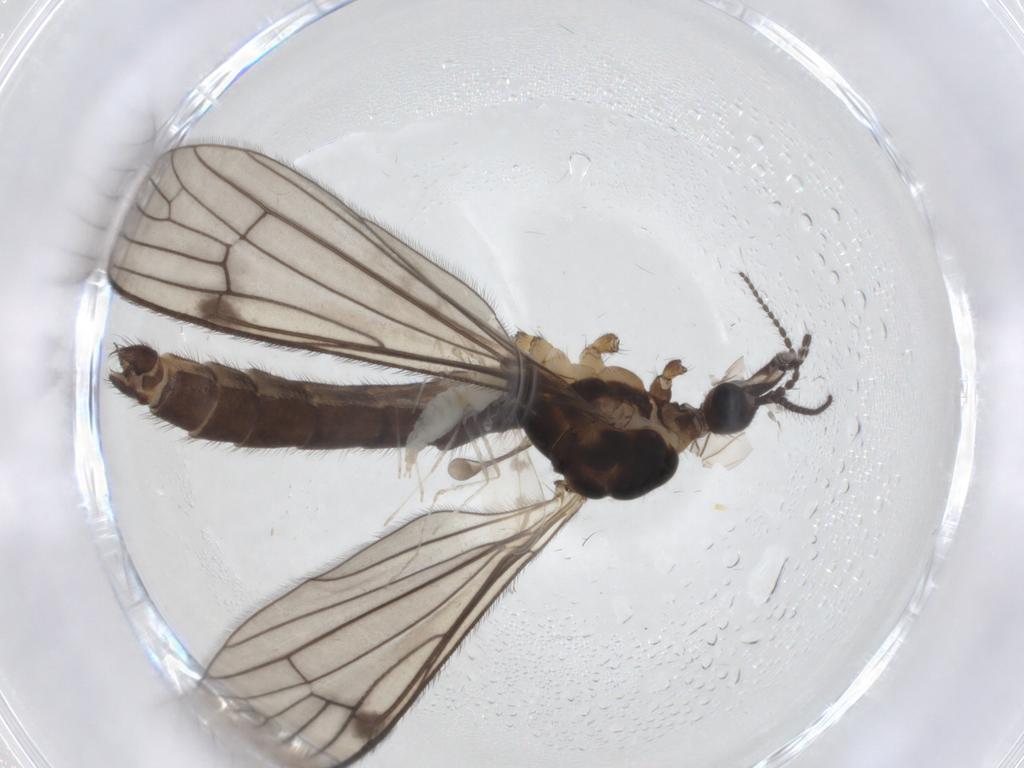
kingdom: Animalia
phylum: Arthropoda
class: Insecta
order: Diptera
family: Limoniidae
